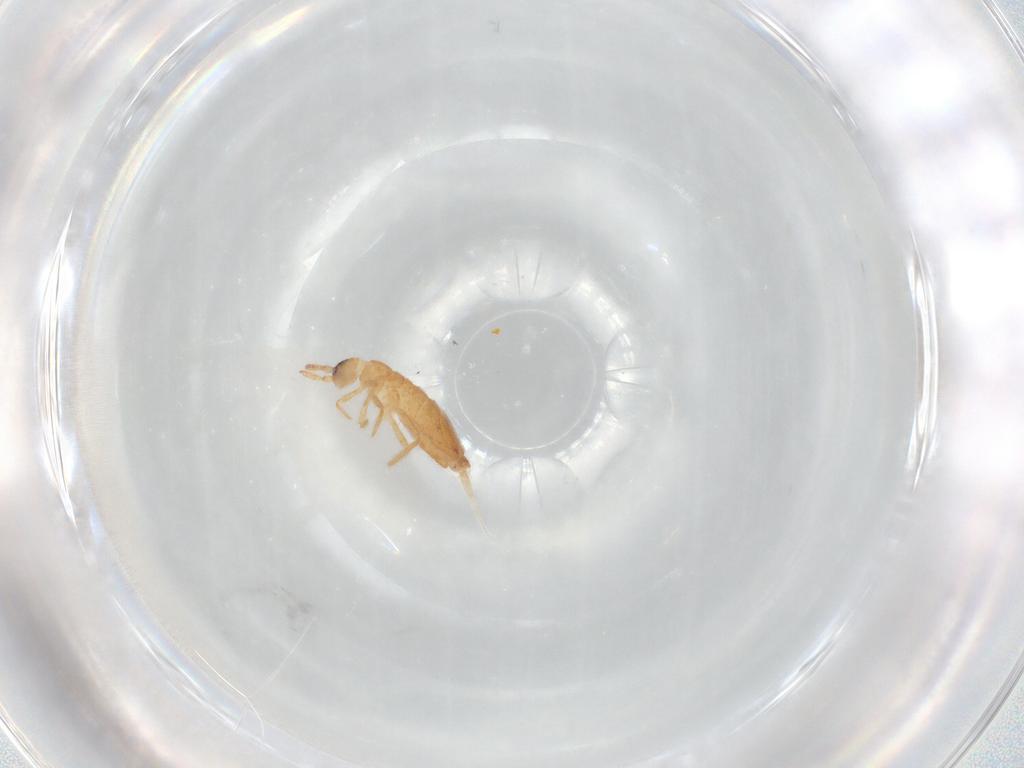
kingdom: Animalia
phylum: Arthropoda
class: Collembola
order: Entomobryomorpha
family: Entomobryidae
